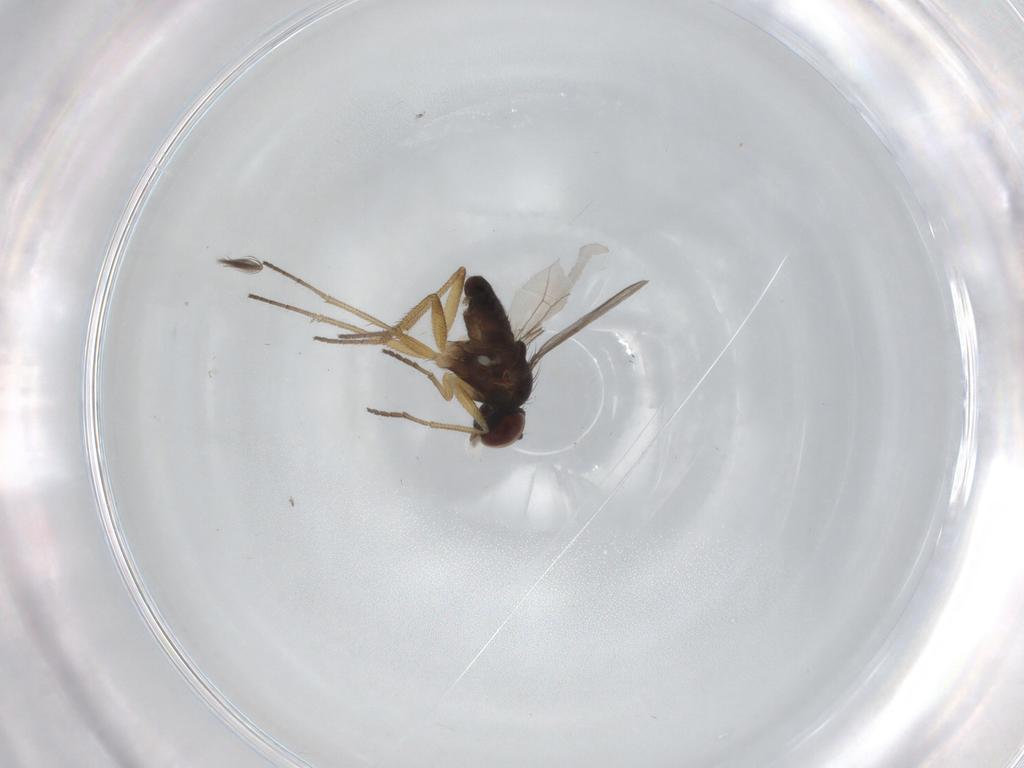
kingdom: Animalia
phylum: Arthropoda
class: Insecta
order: Diptera
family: Dolichopodidae
